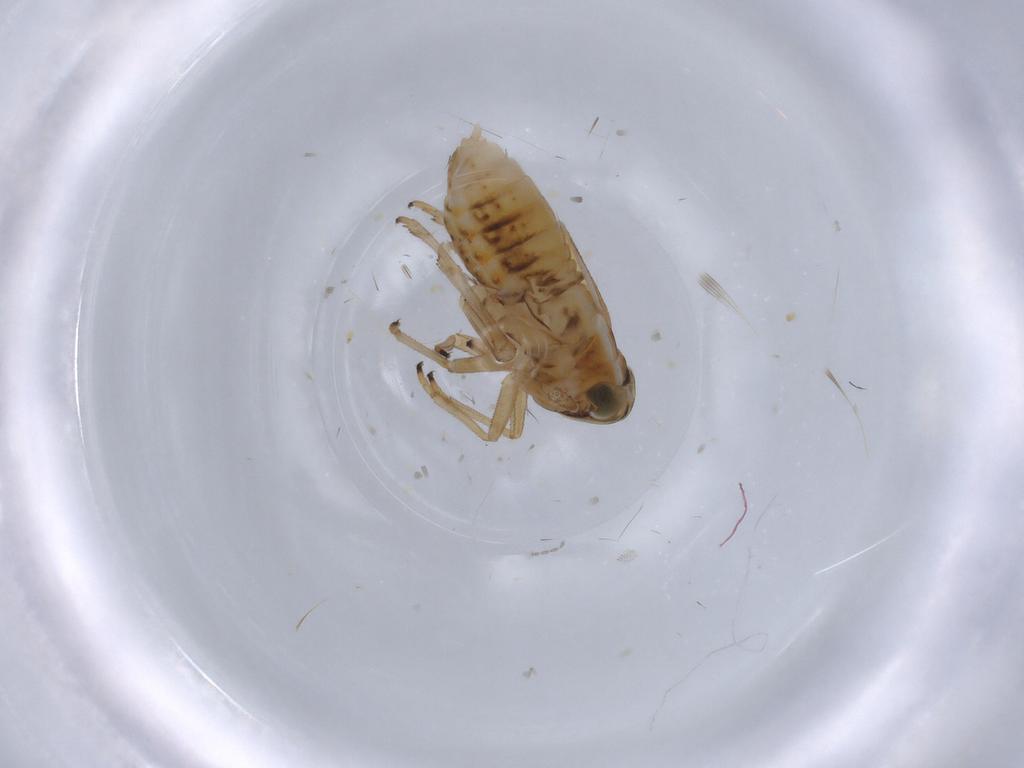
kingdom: Animalia
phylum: Arthropoda
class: Insecta
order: Hemiptera
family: Delphacidae
